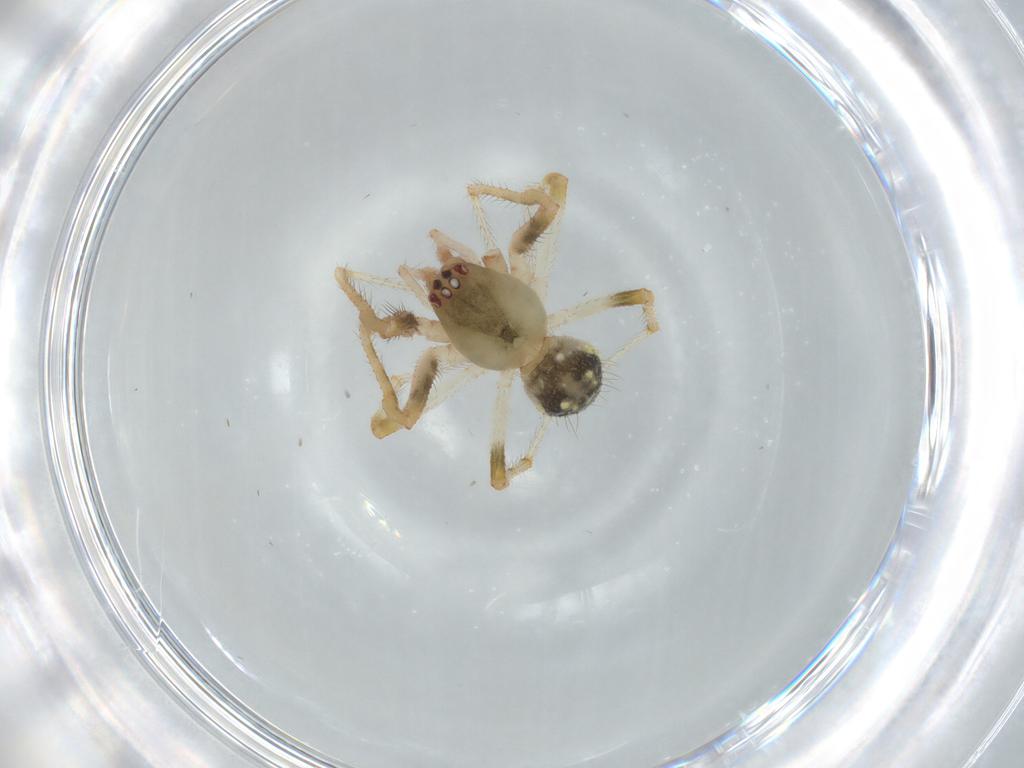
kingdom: Animalia
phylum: Arthropoda
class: Arachnida
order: Araneae
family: Theridiidae
